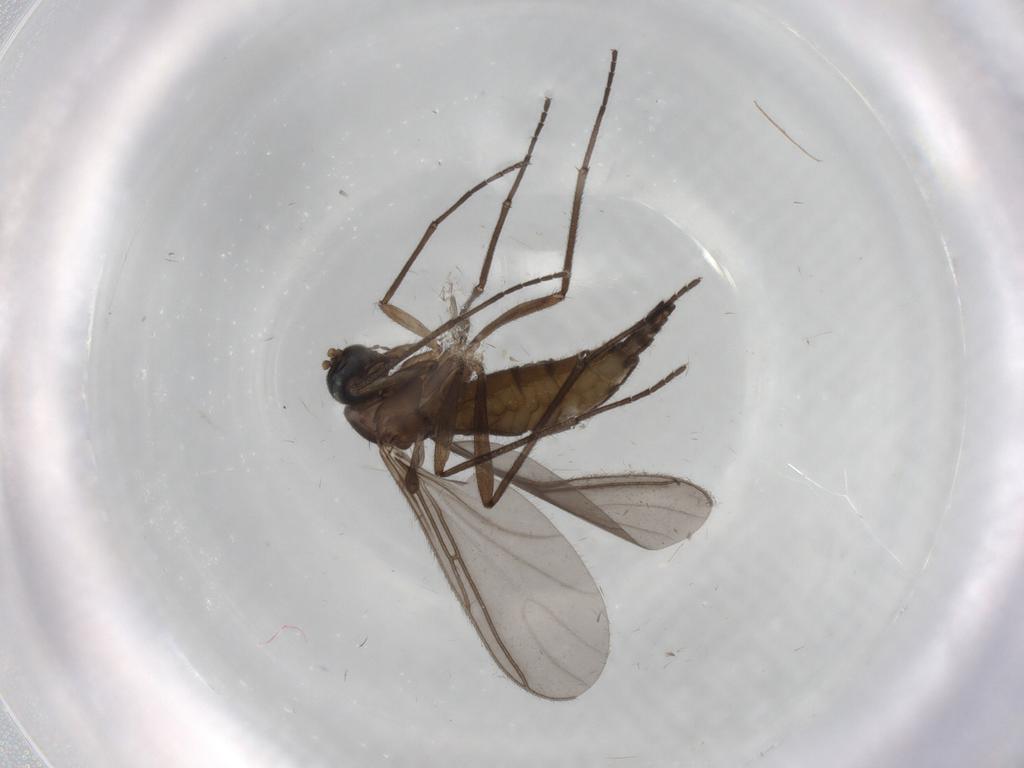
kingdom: Animalia
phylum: Arthropoda
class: Insecta
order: Diptera
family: Sciaridae
